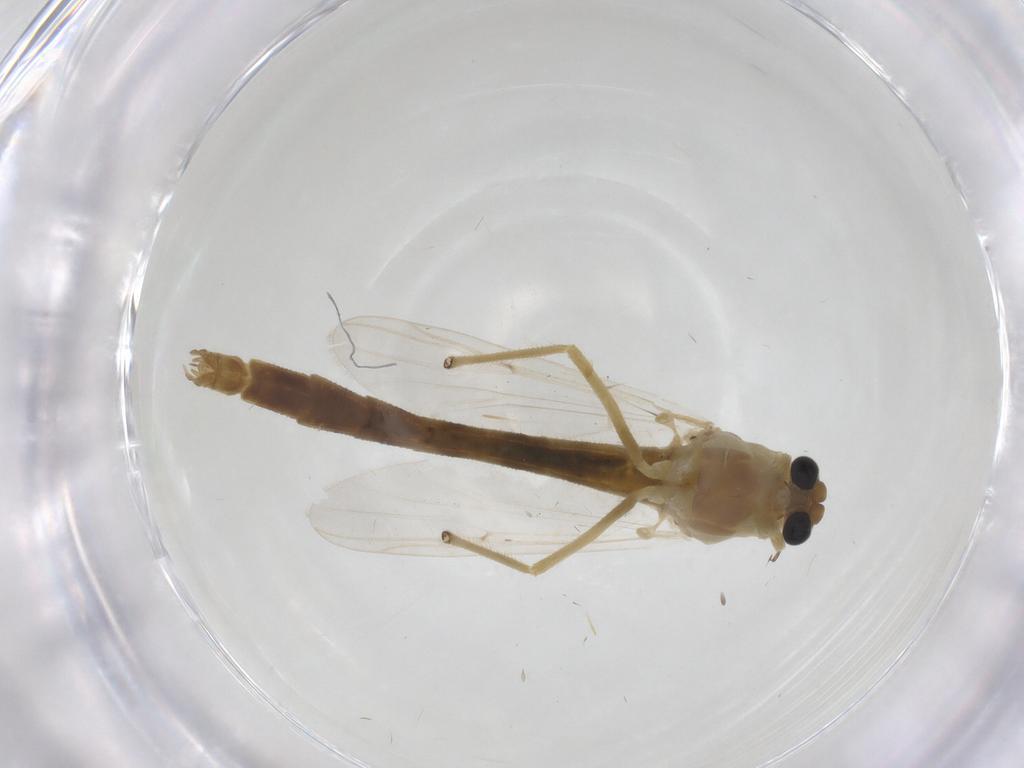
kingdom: Animalia
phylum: Arthropoda
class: Insecta
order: Diptera
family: Chironomidae
